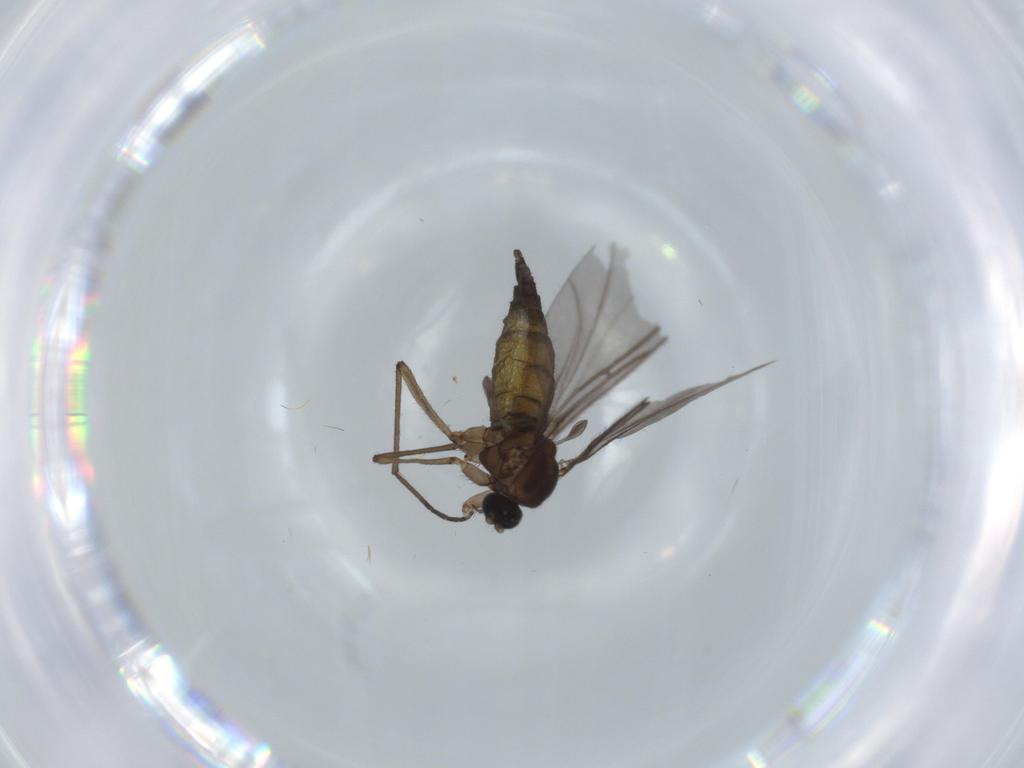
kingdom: Animalia
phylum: Arthropoda
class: Insecta
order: Diptera
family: Sciaridae
